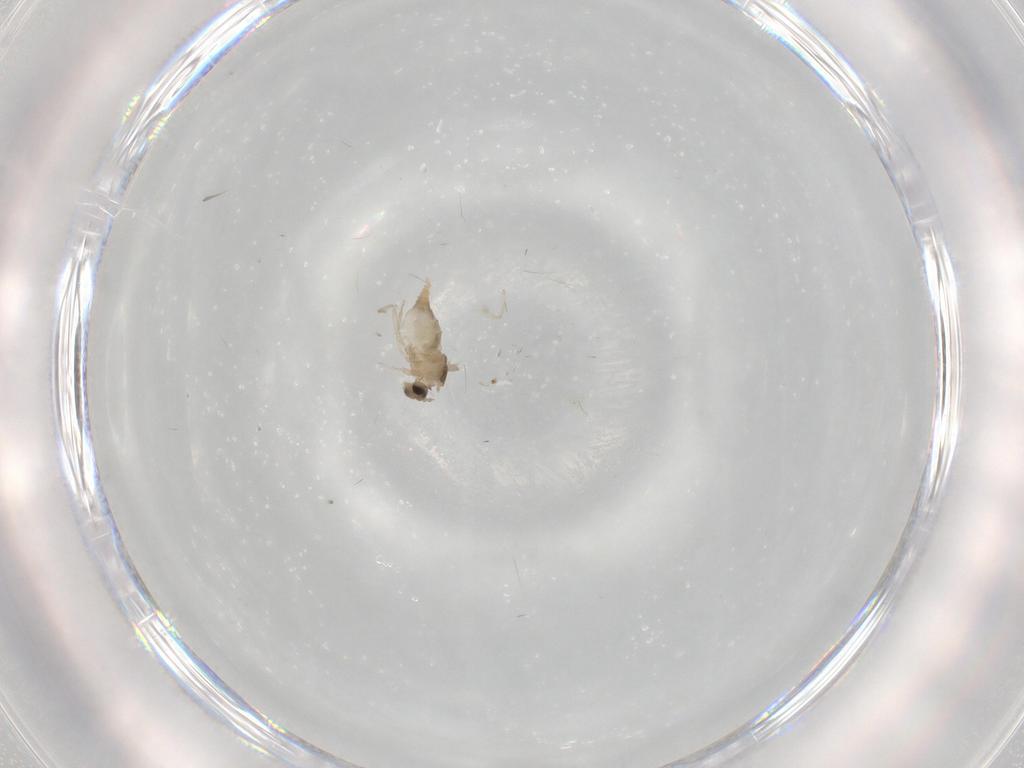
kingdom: Animalia
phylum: Arthropoda
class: Insecta
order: Diptera
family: Cecidomyiidae
